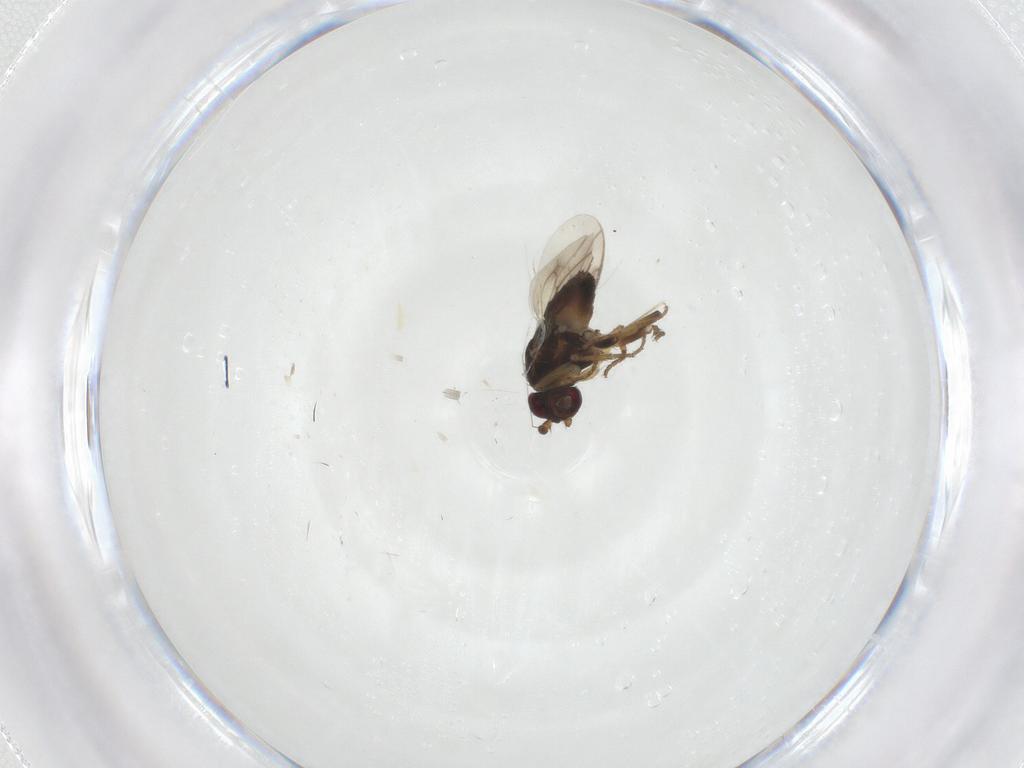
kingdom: Animalia
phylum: Arthropoda
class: Insecta
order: Diptera
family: Sphaeroceridae
